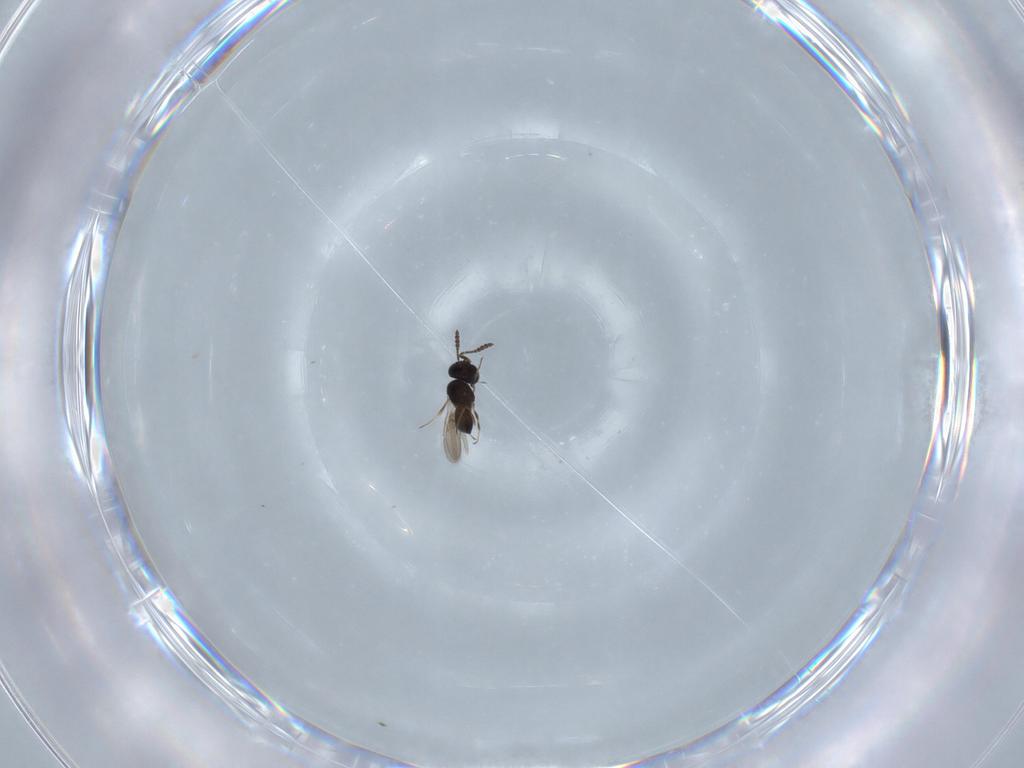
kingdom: Animalia
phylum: Arthropoda
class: Insecta
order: Hymenoptera
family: Scelionidae
